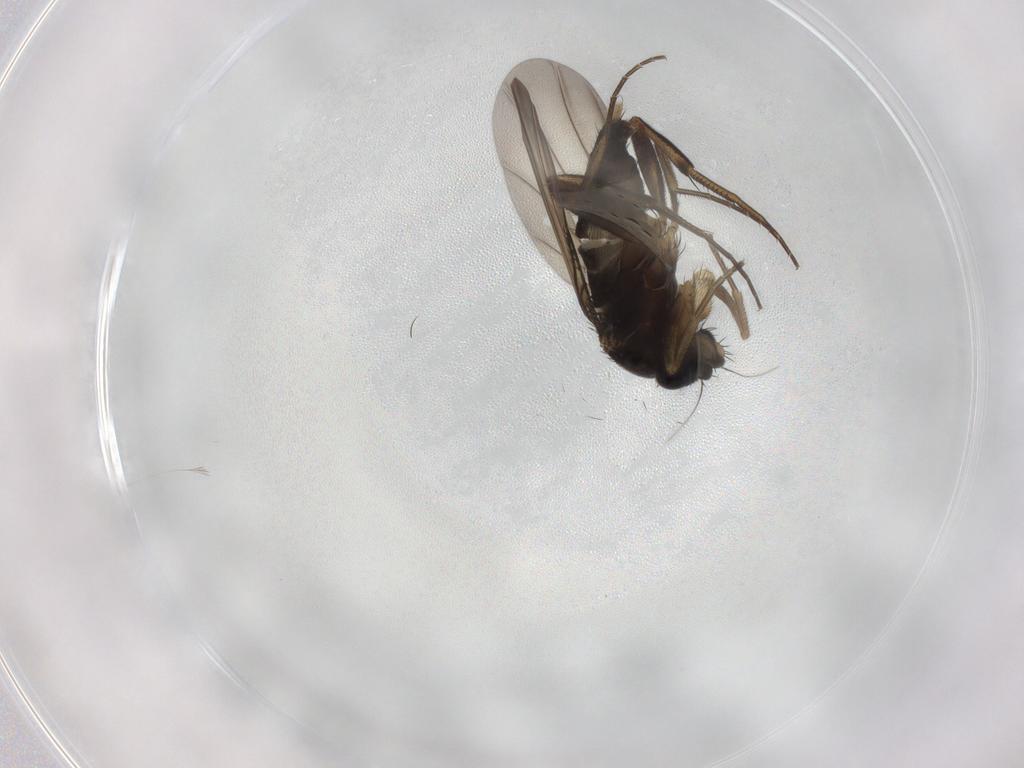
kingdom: Animalia
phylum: Arthropoda
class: Insecta
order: Diptera
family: Phoridae
